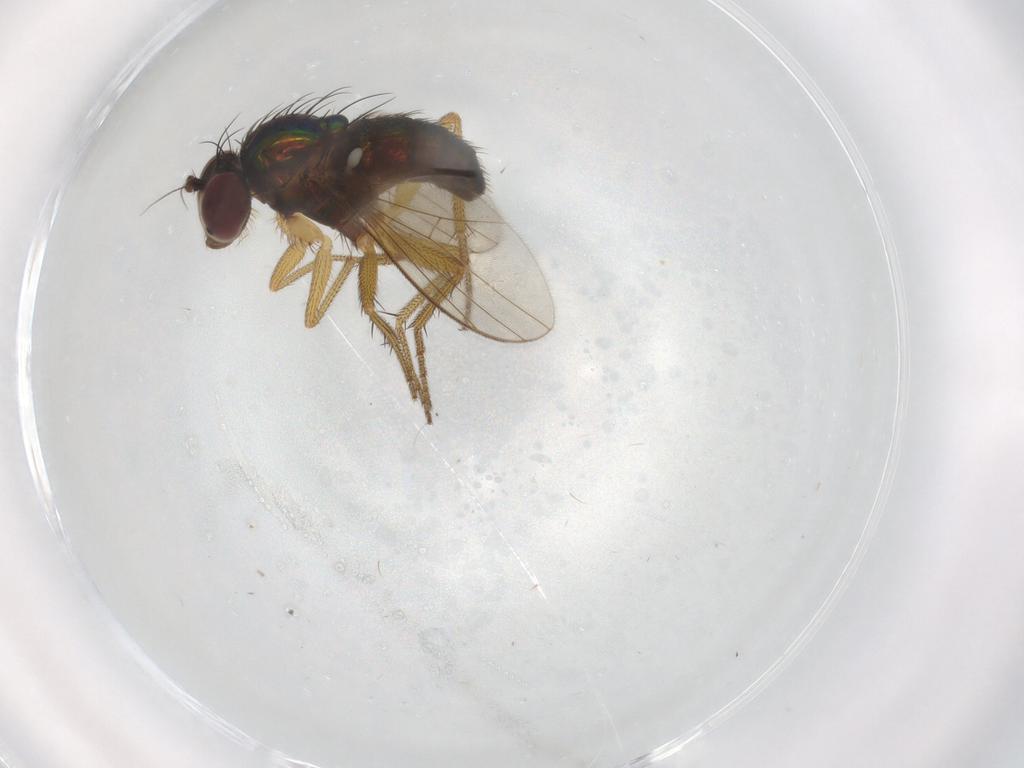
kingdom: Animalia
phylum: Arthropoda
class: Insecta
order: Diptera
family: Dolichopodidae
